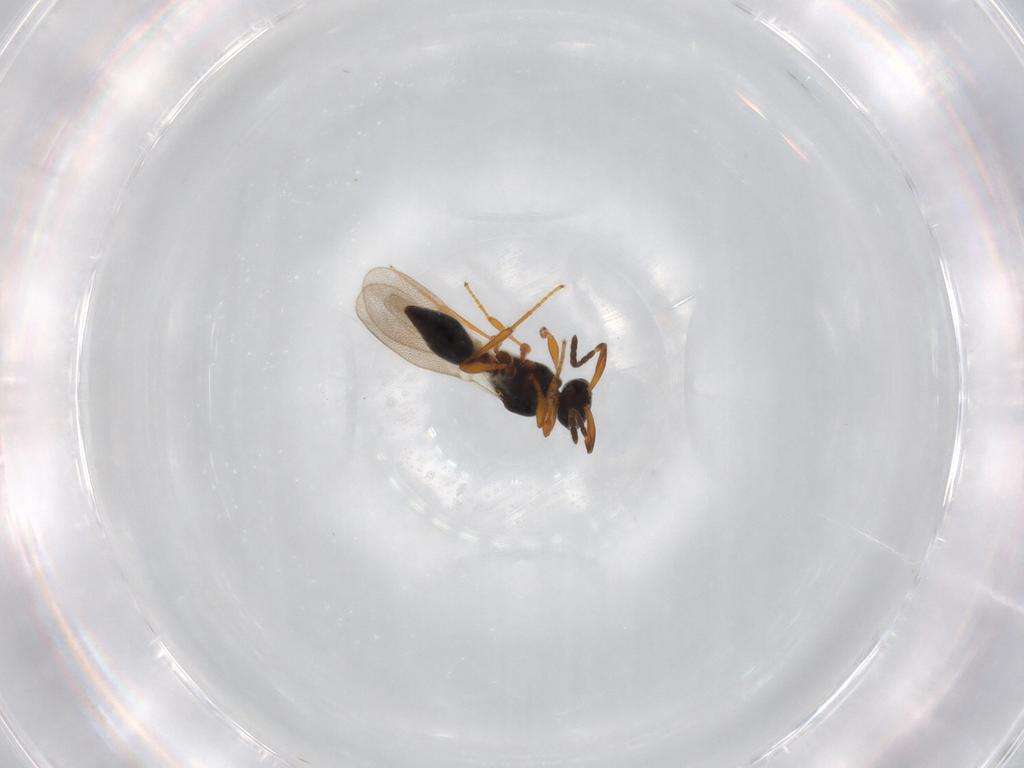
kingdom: Animalia
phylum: Arthropoda
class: Insecta
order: Hymenoptera
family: Platygastridae
